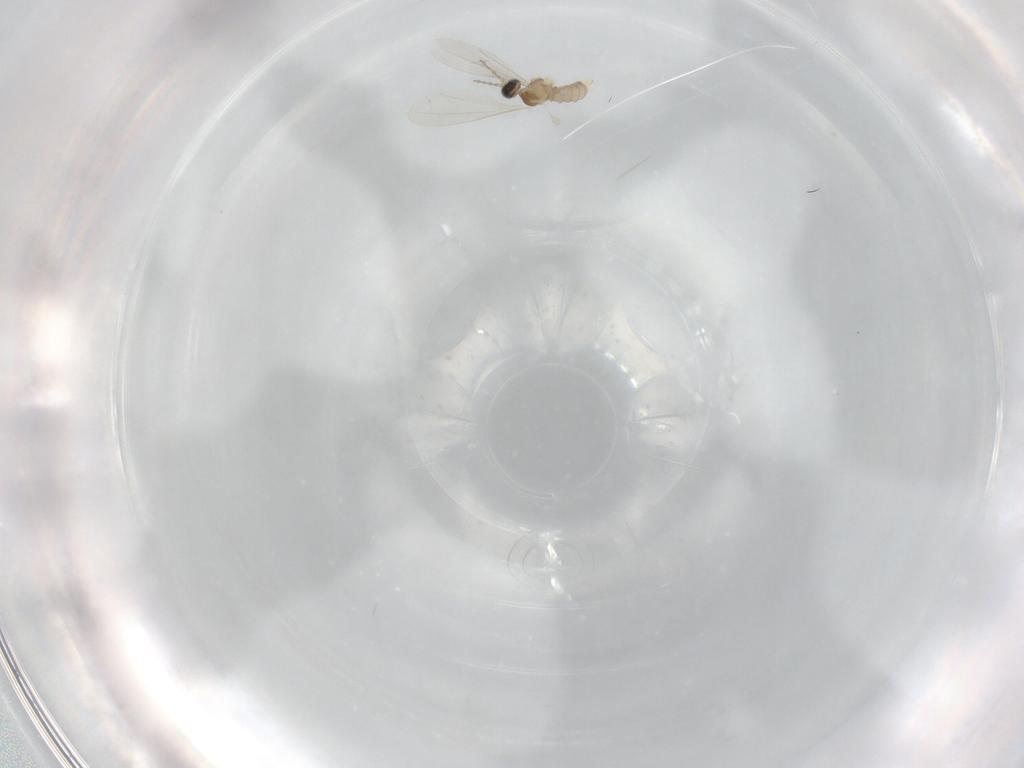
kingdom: Animalia
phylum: Arthropoda
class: Insecta
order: Diptera
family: Cecidomyiidae
